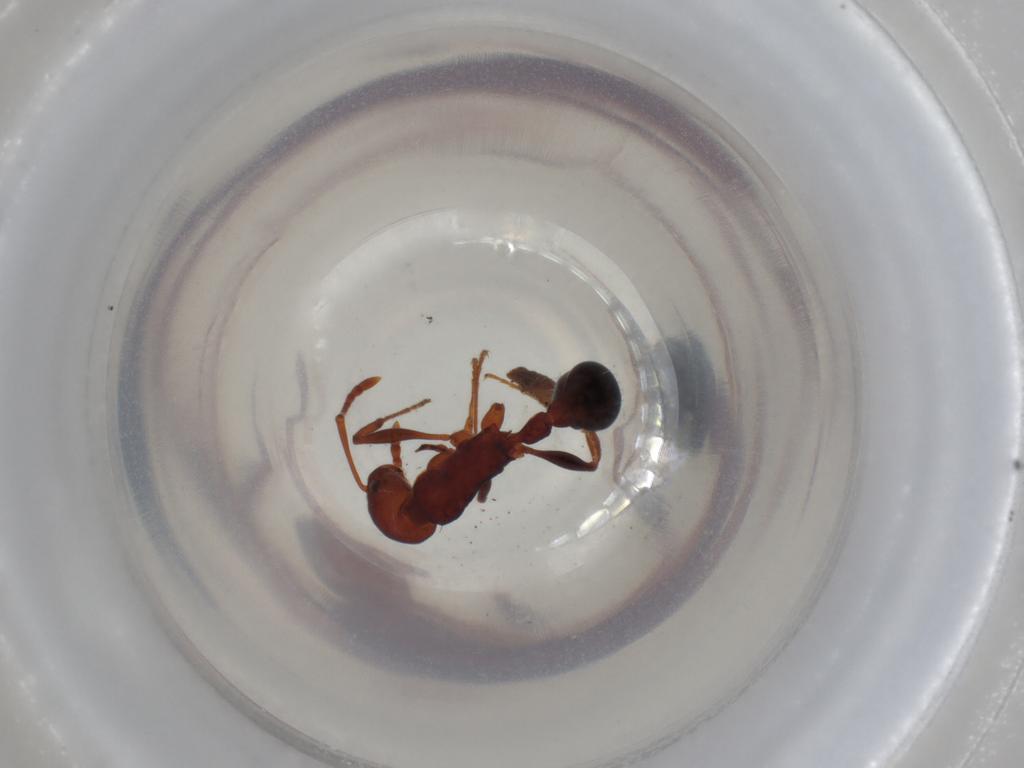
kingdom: Animalia
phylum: Arthropoda
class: Insecta
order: Hymenoptera
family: Formicidae
